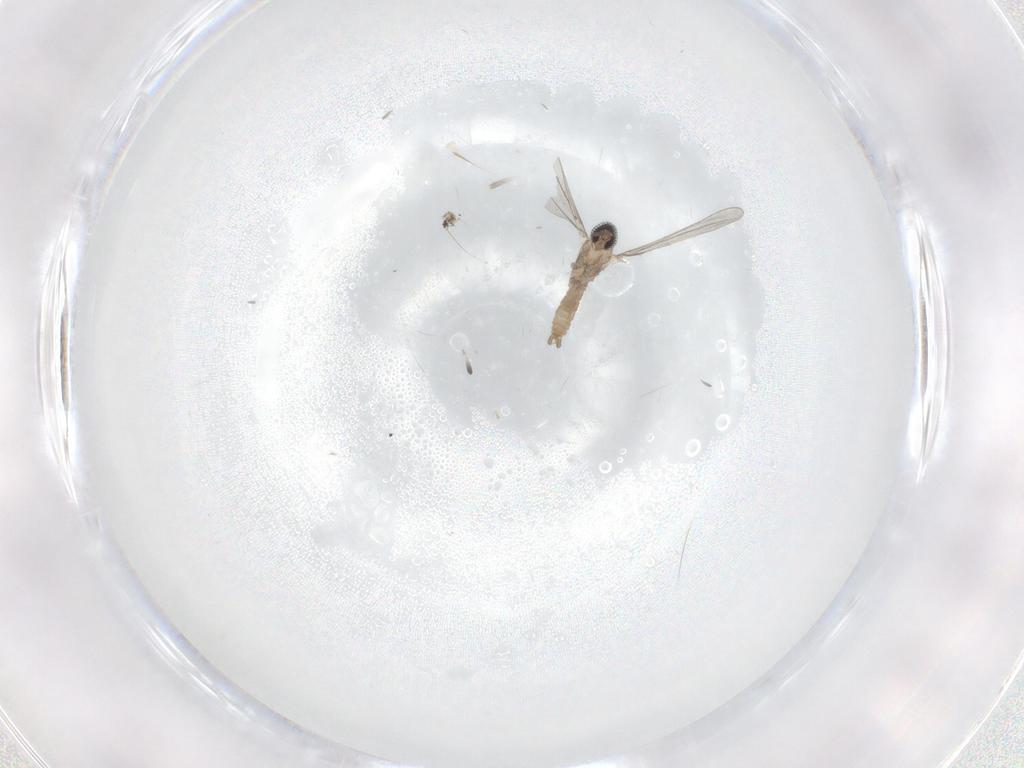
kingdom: Animalia
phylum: Arthropoda
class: Insecta
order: Diptera
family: Cecidomyiidae
